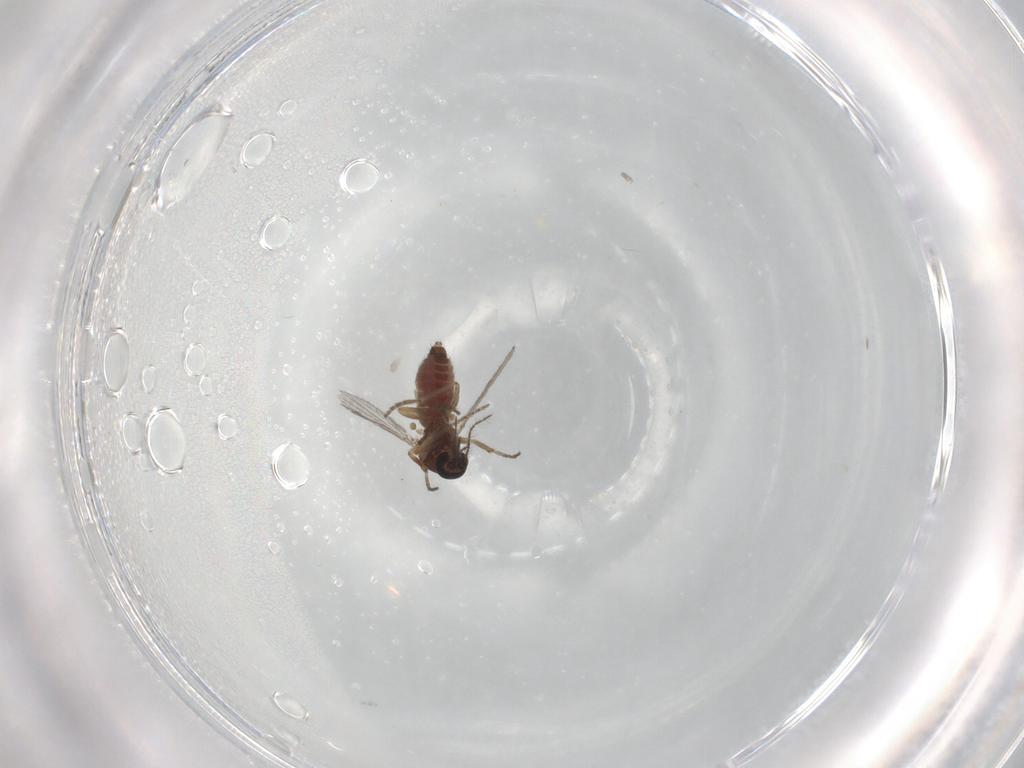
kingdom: Animalia
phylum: Arthropoda
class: Insecta
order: Diptera
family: Ceratopogonidae
